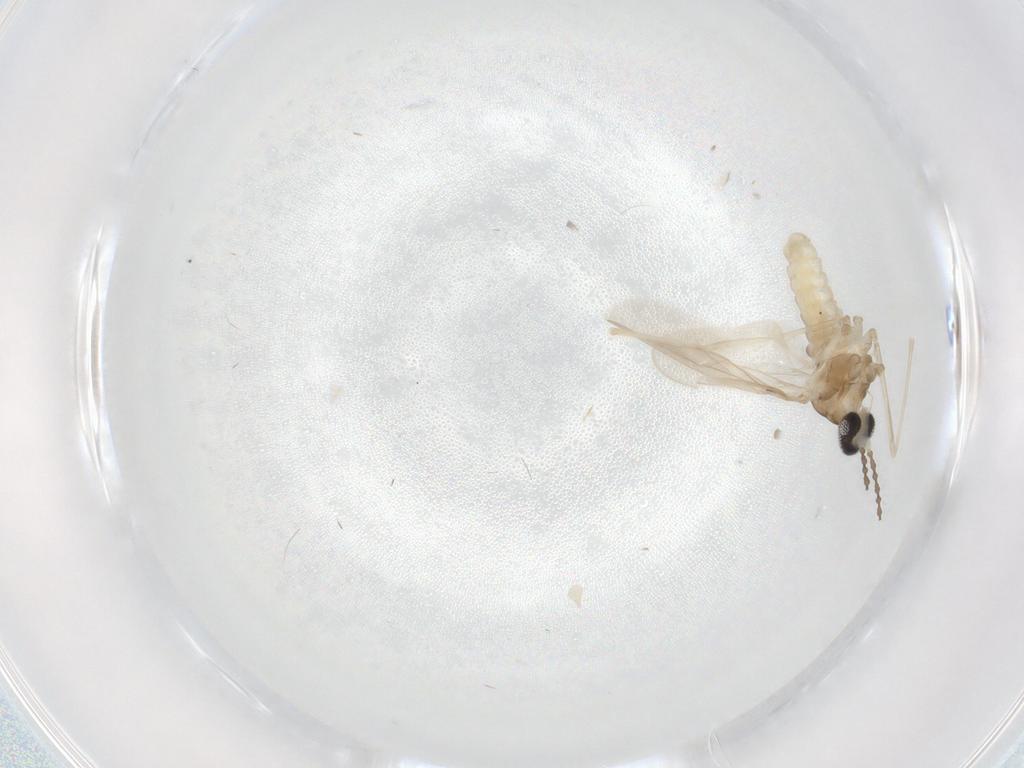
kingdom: Animalia
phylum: Arthropoda
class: Insecta
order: Diptera
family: Cecidomyiidae
